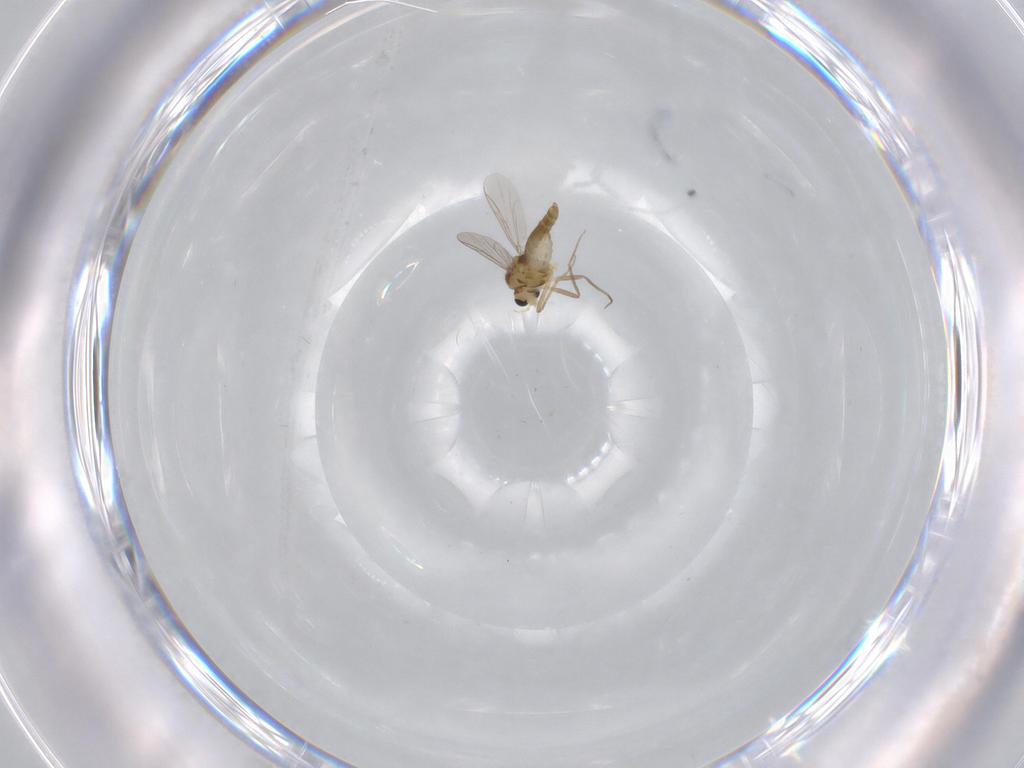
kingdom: Animalia
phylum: Arthropoda
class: Insecta
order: Diptera
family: Chironomidae
